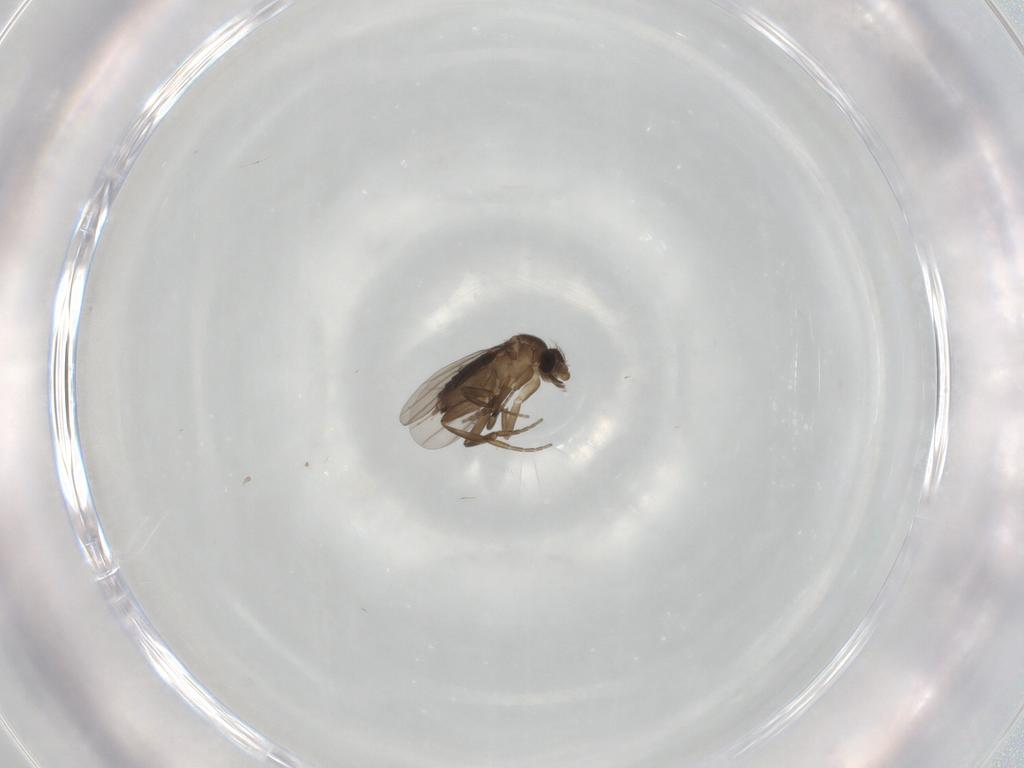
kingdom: Animalia
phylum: Arthropoda
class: Insecta
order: Diptera
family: Phoridae
